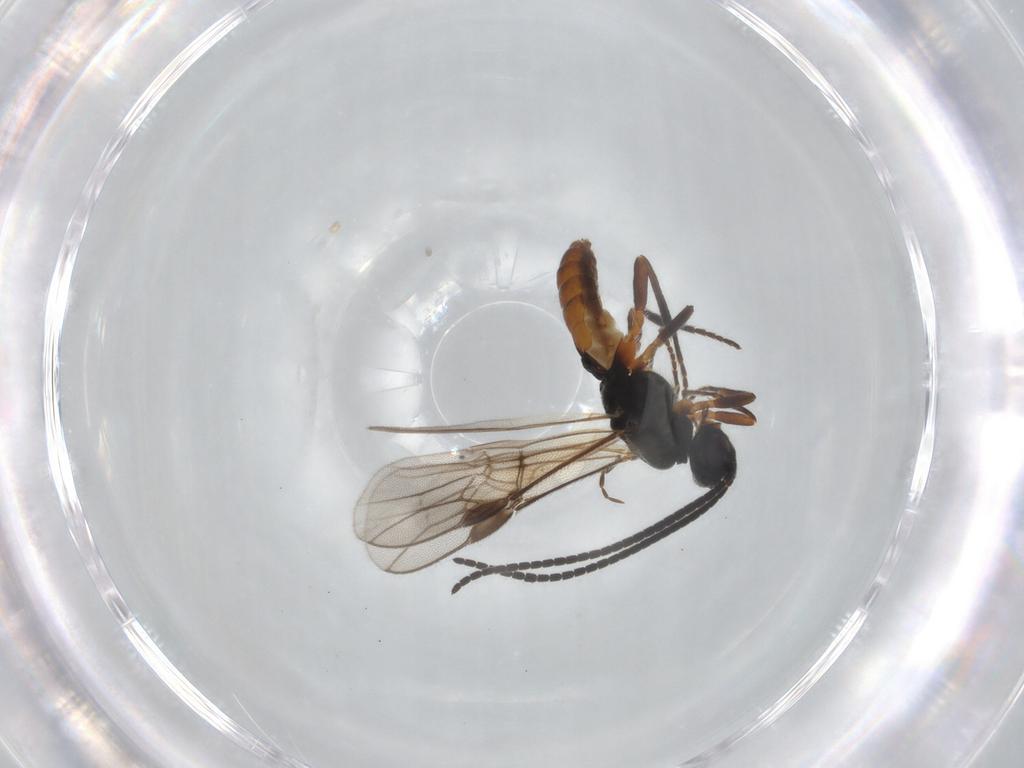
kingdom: Animalia
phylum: Arthropoda
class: Insecta
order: Hymenoptera
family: Braconidae
